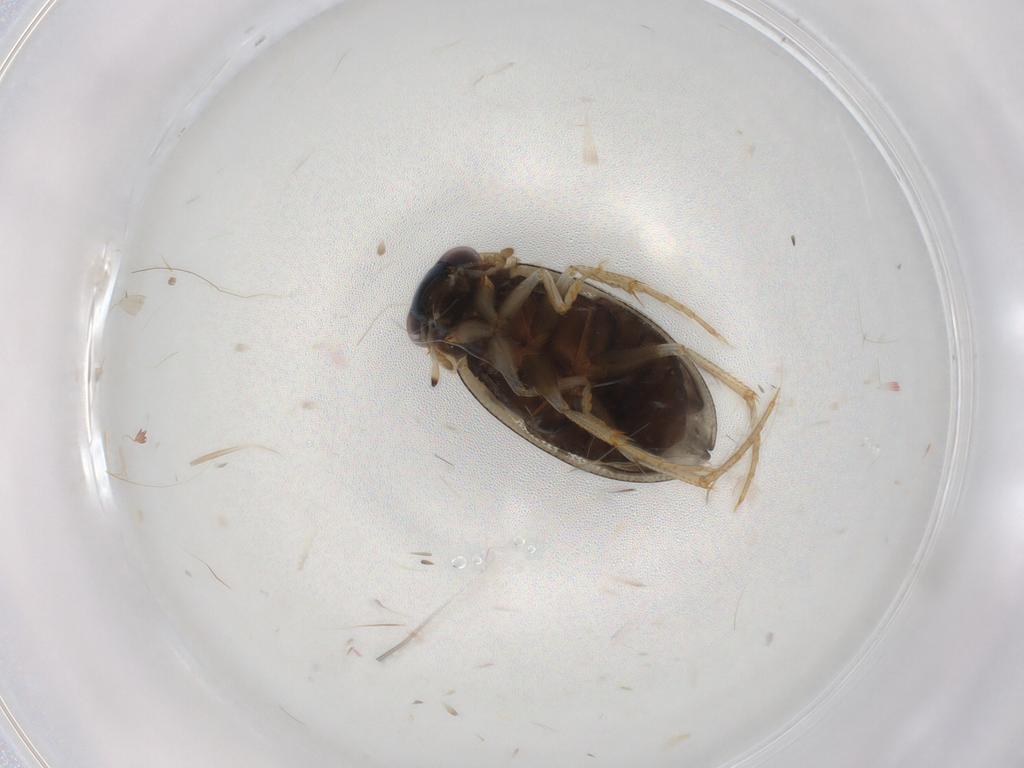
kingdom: Animalia
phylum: Arthropoda
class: Insecta
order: Coleoptera
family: Hydrophilidae
